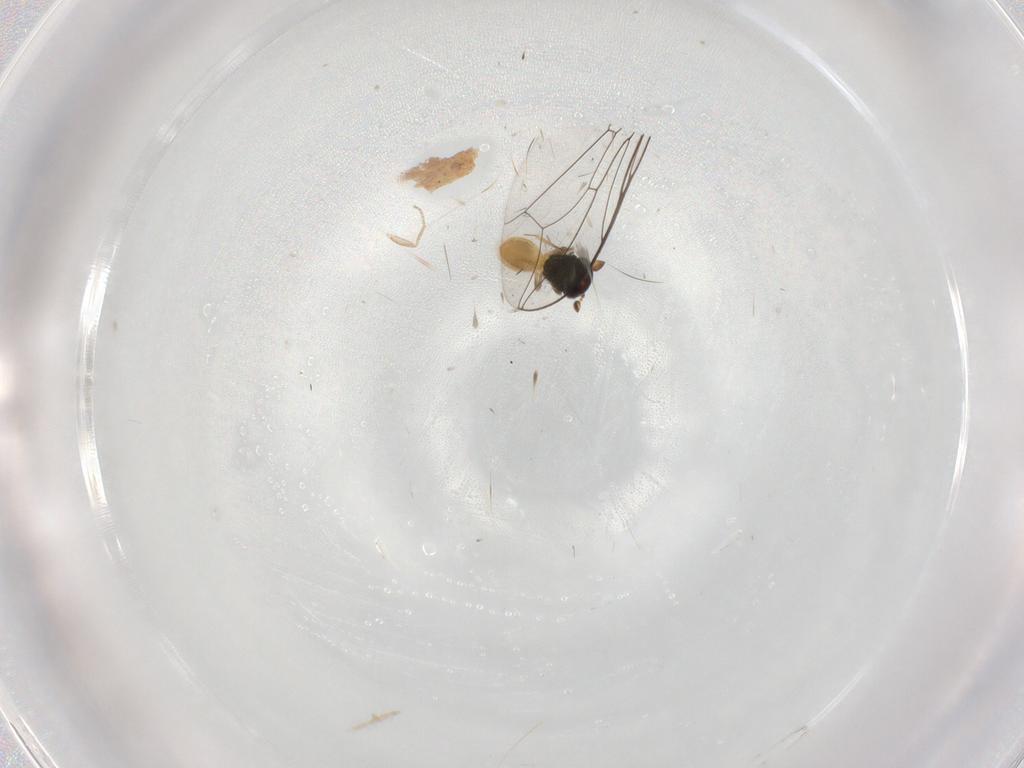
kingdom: Animalia
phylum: Arthropoda
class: Insecta
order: Hymenoptera
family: Scelionidae
